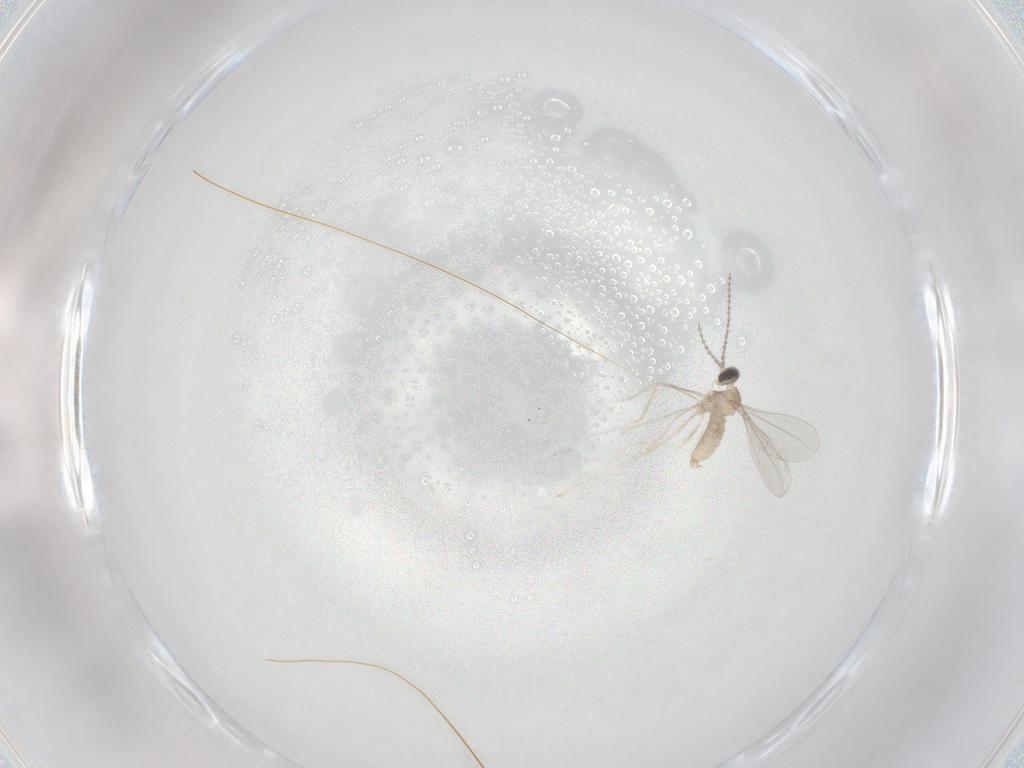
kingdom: Animalia
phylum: Arthropoda
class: Insecta
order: Diptera
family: Cecidomyiidae
